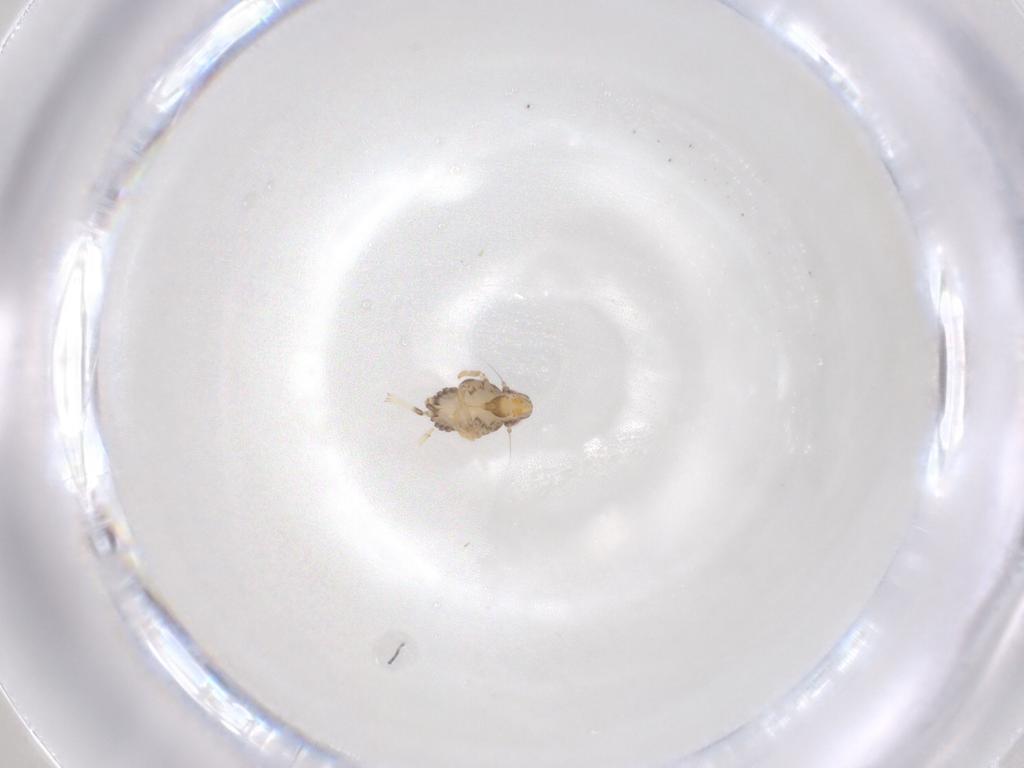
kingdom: Animalia
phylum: Arthropoda
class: Insecta
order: Hemiptera
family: Issidae
